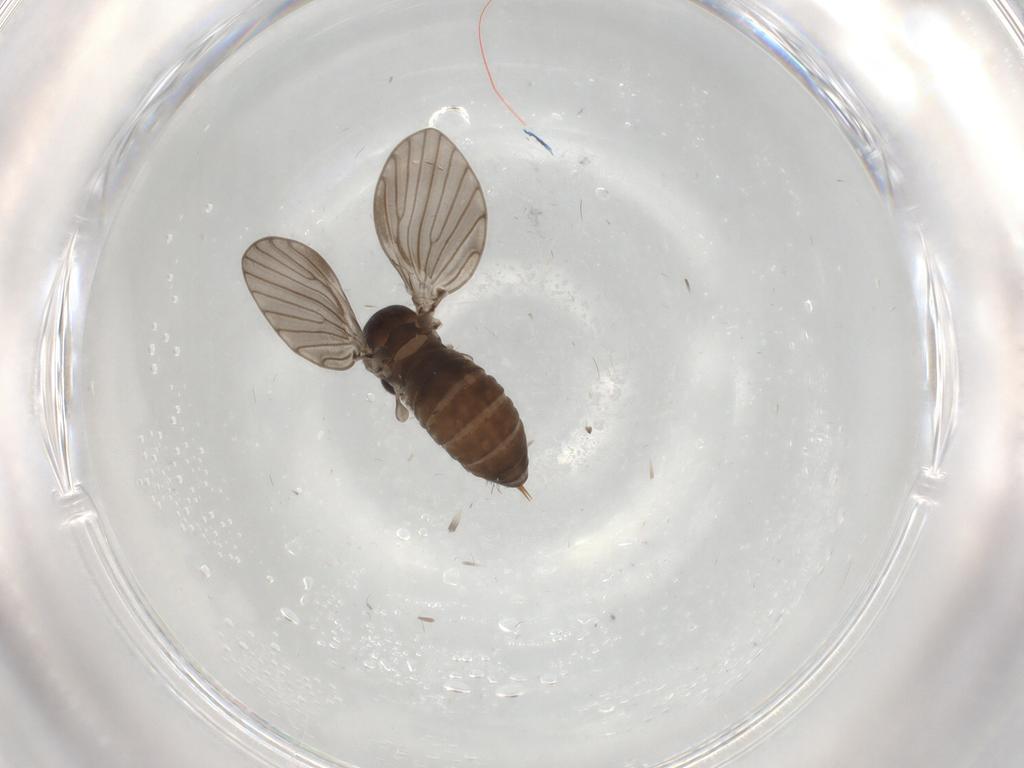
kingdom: Animalia
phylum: Arthropoda
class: Insecta
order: Diptera
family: Psychodidae
